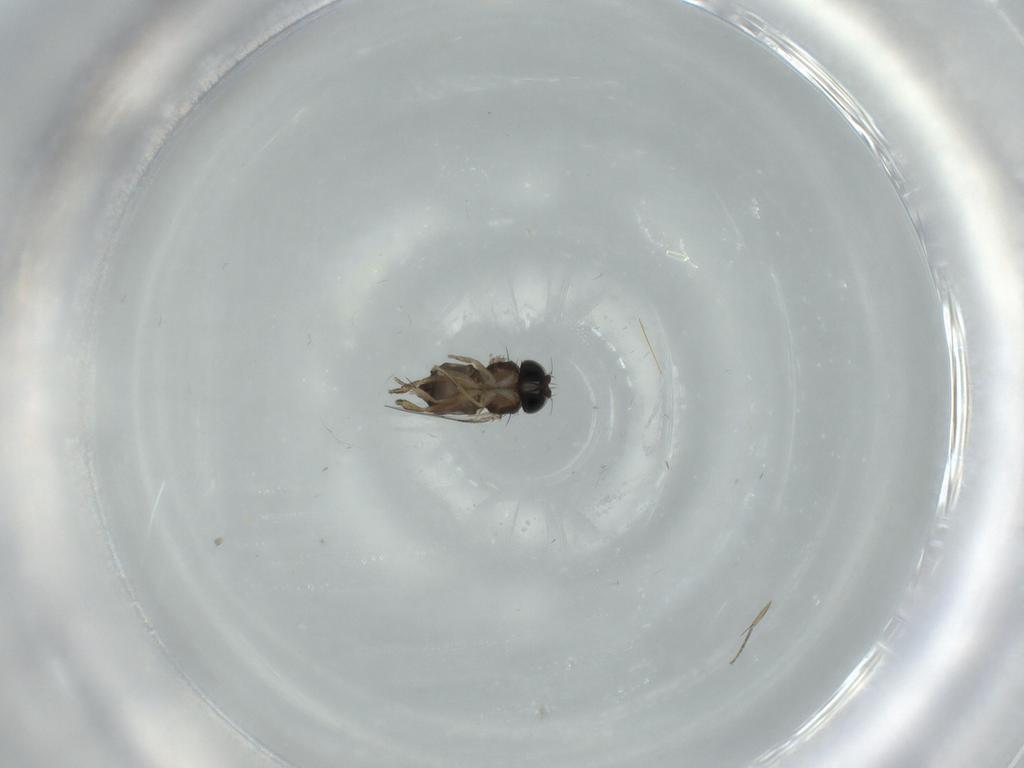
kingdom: Animalia
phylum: Arthropoda
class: Insecta
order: Diptera
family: Phoridae
